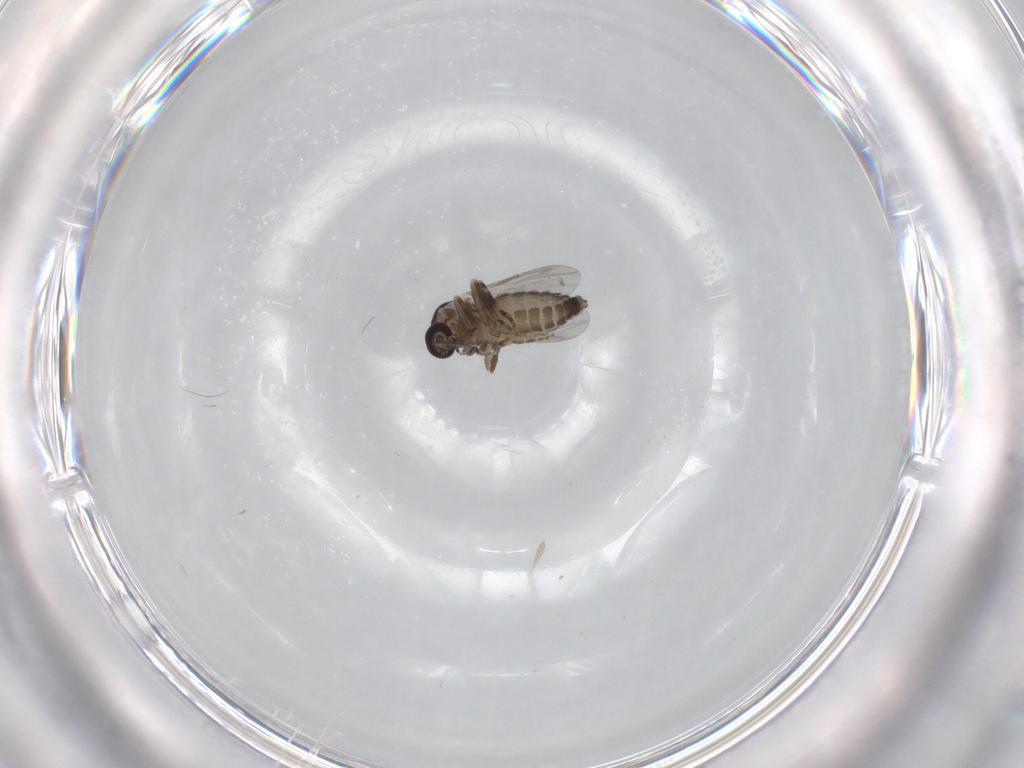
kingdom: Animalia
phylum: Arthropoda
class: Insecta
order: Diptera
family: Ceratopogonidae
